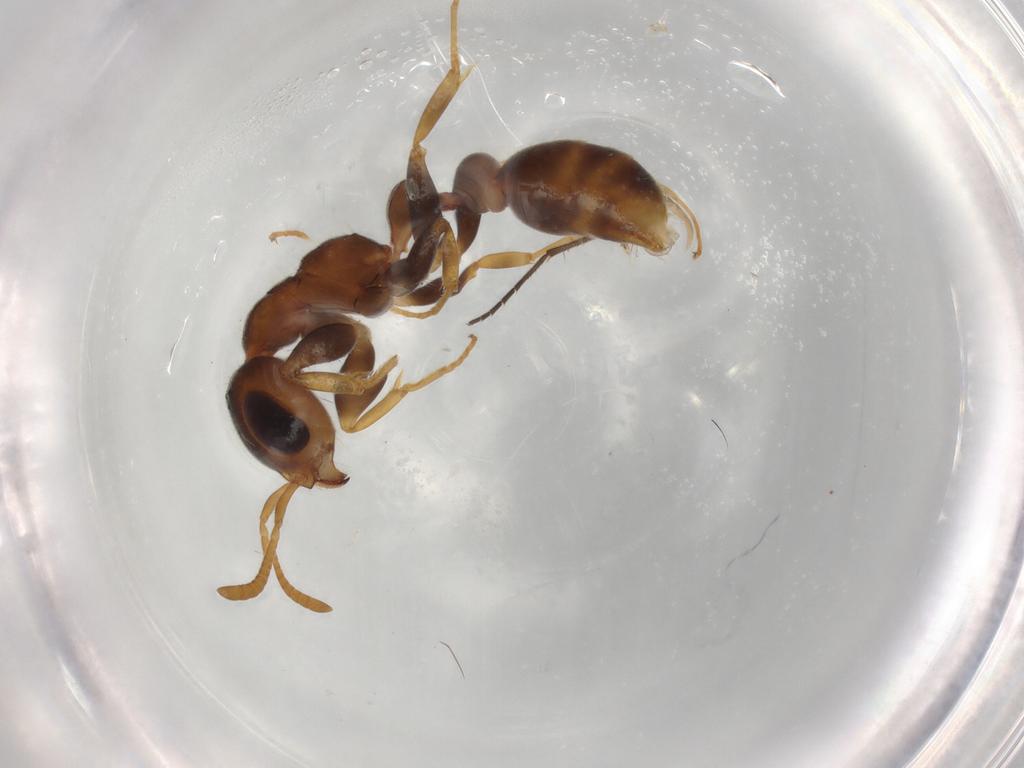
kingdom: Animalia
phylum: Arthropoda
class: Insecta
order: Hymenoptera
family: Formicidae
